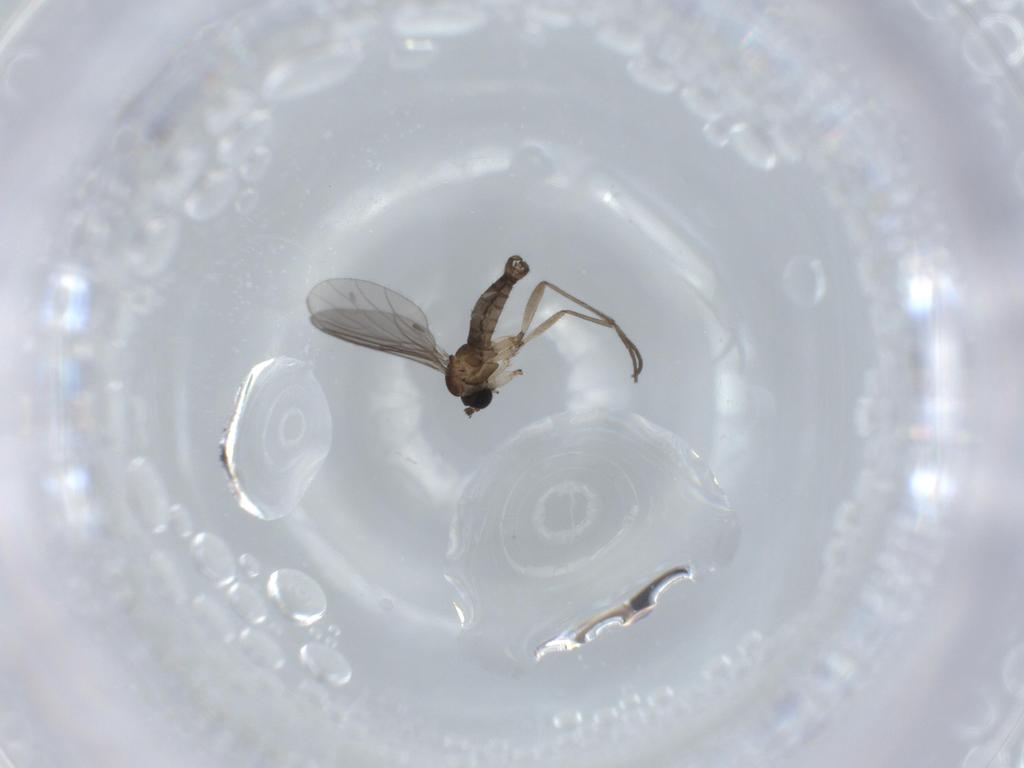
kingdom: Animalia
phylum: Arthropoda
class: Insecta
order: Diptera
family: Sciaridae
